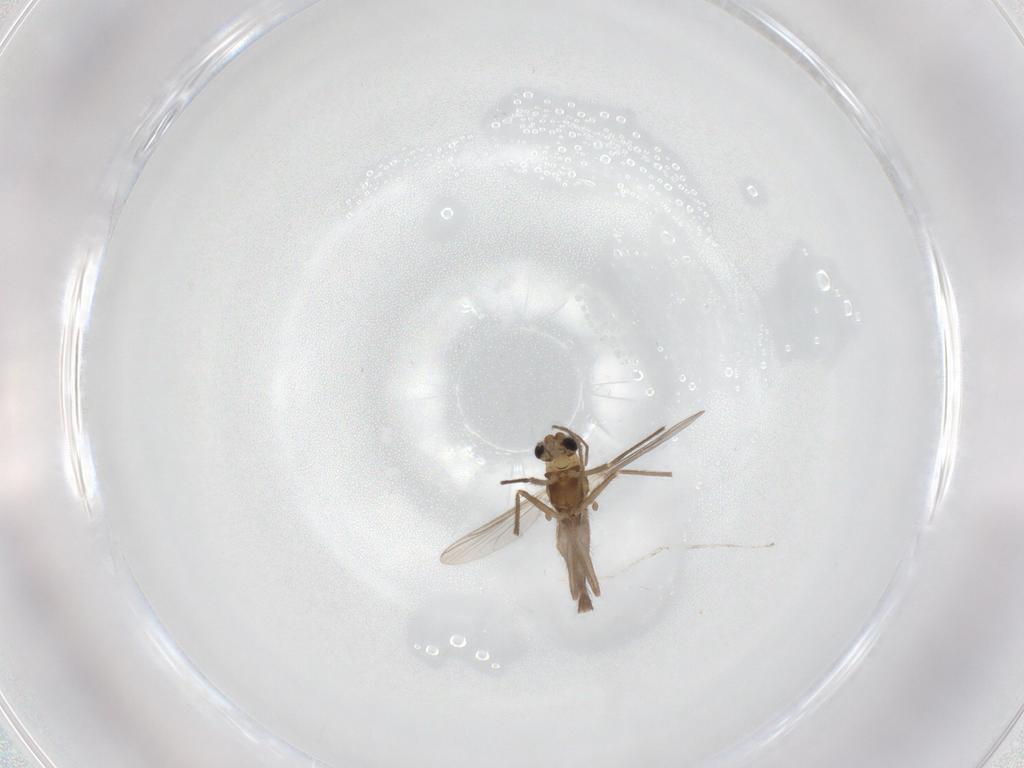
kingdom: Animalia
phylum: Arthropoda
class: Insecta
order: Diptera
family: Chironomidae
